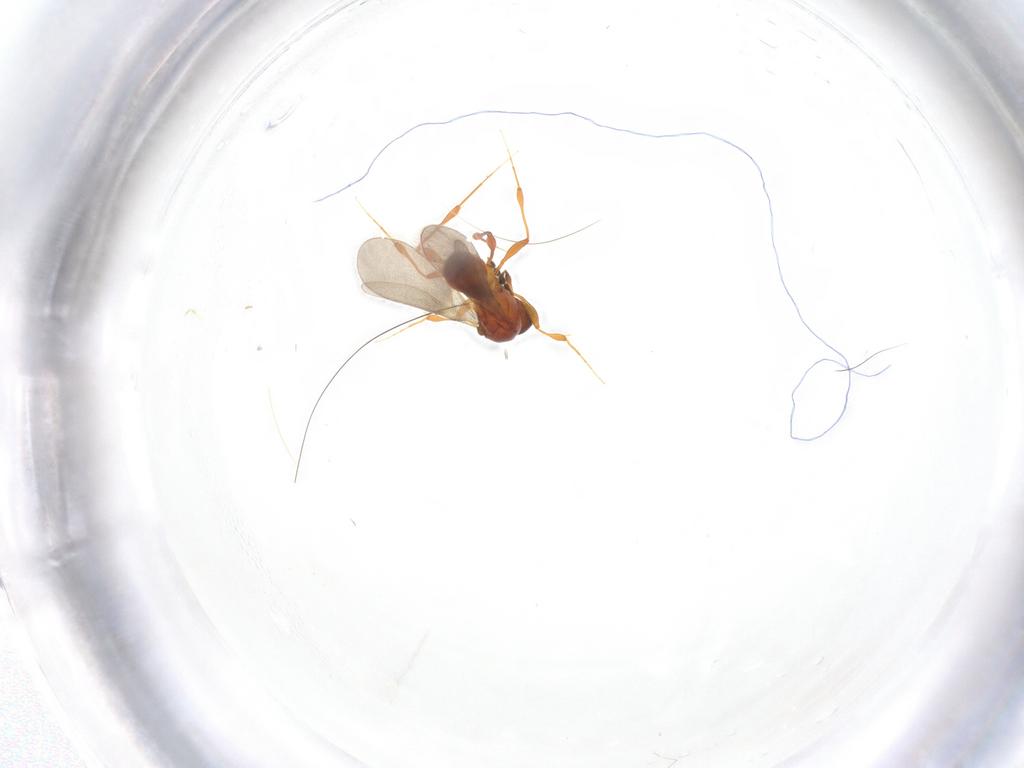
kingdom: Animalia
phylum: Arthropoda
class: Insecta
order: Hymenoptera
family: Platygastridae
